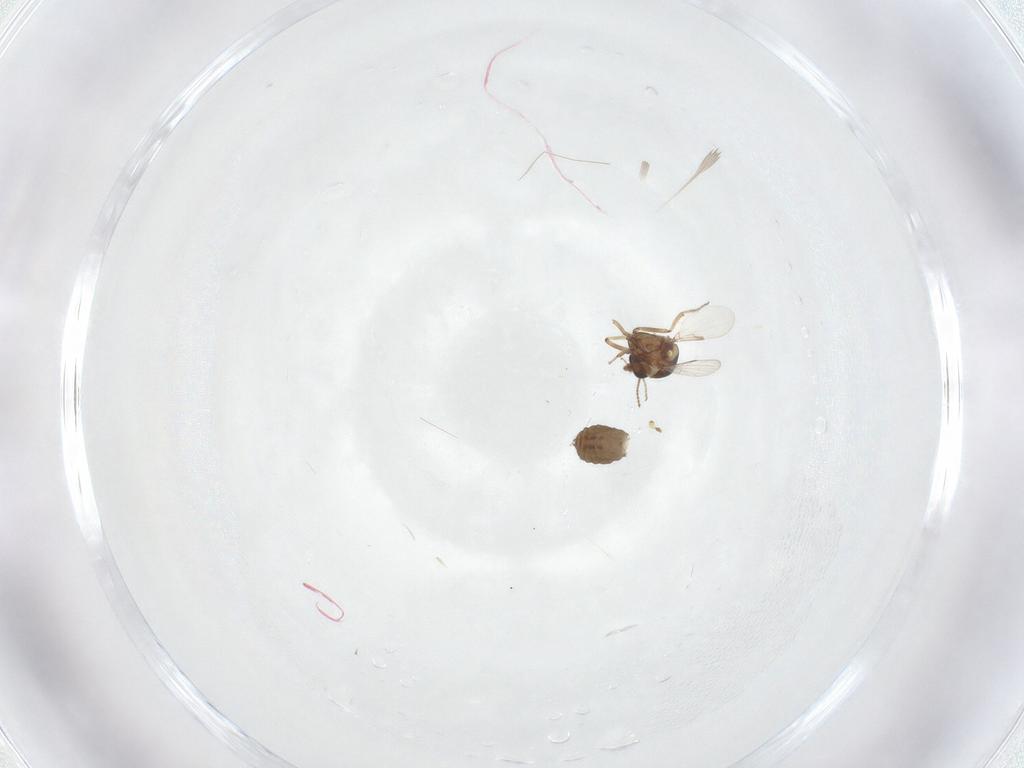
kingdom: Animalia
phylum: Arthropoda
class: Insecta
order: Diptera
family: Ceratopogonidae
